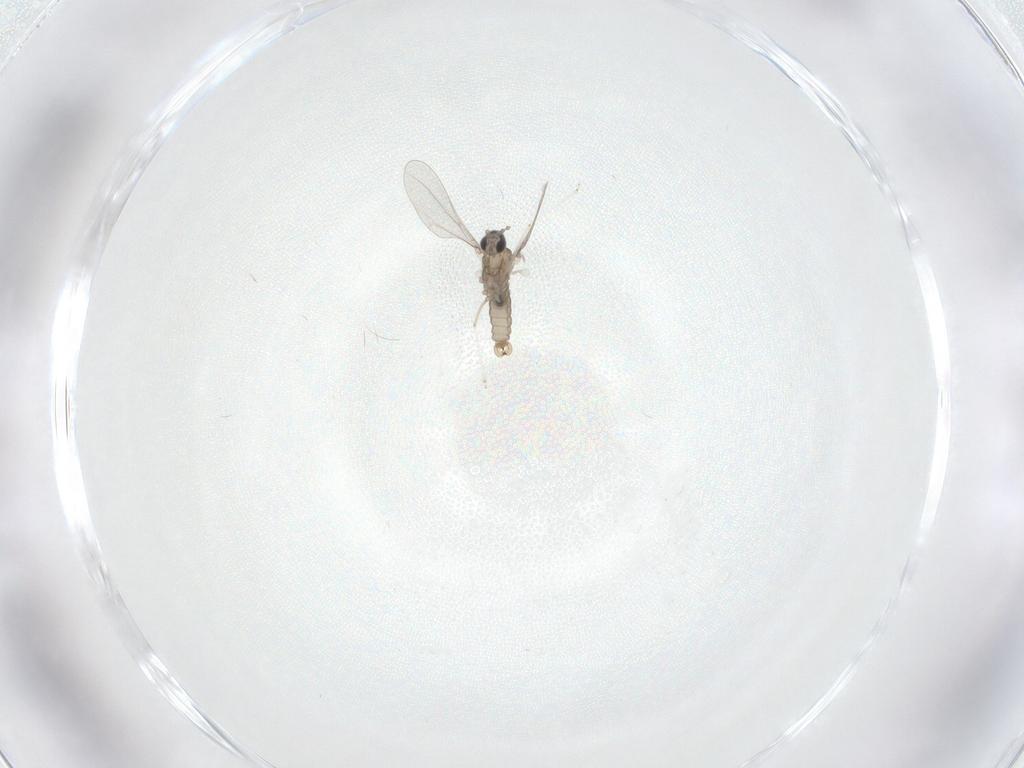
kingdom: Animalia
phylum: Arthropoda
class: Insecta
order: Diptera
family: Cecidomyiidae
